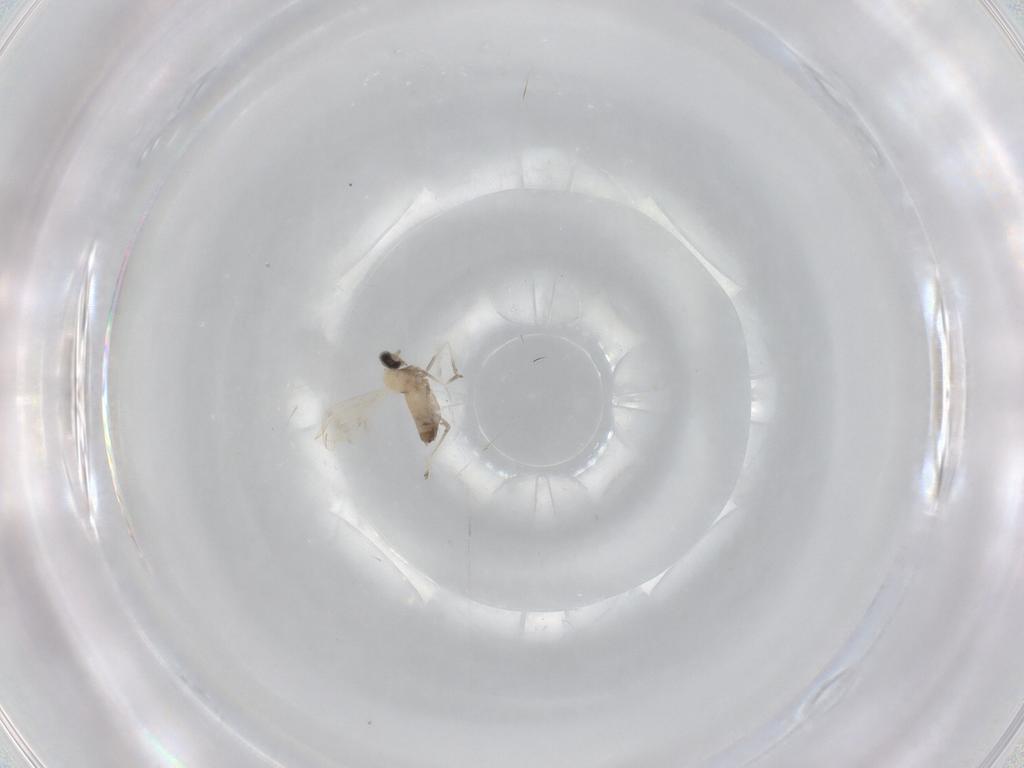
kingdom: Animalia
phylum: Arthropoda
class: Insecta
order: Diptera
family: Cecidomyiidae
